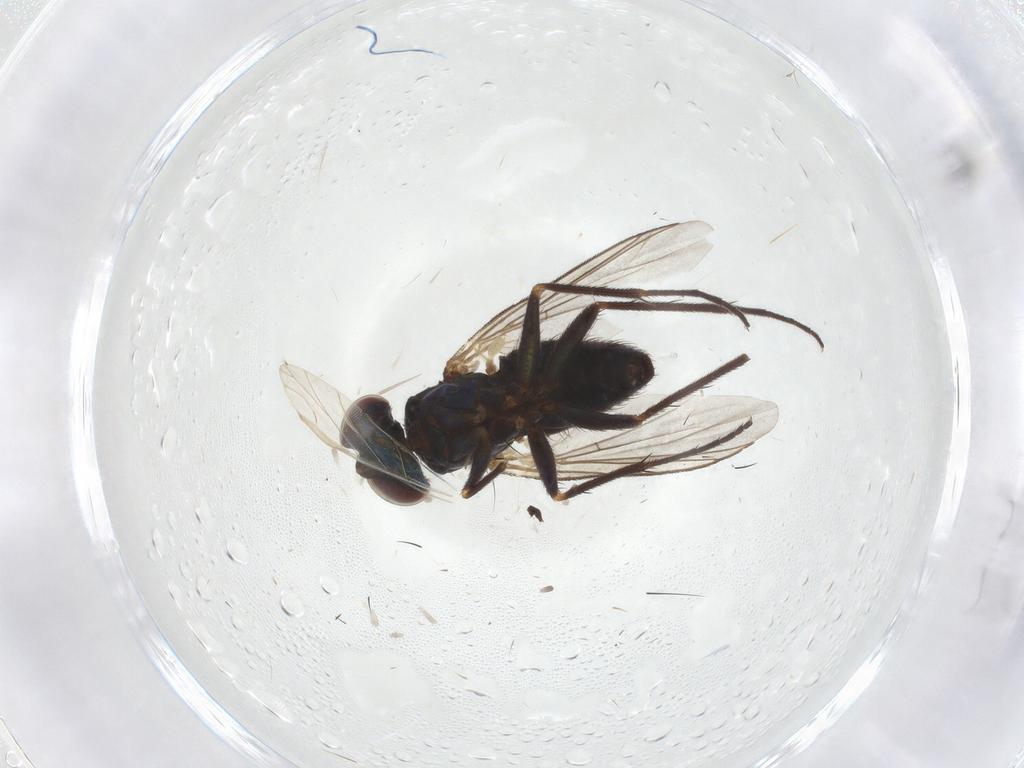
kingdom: Animalia
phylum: Arthropoda
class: Insecta
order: Diptera
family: Dolichopodidae
